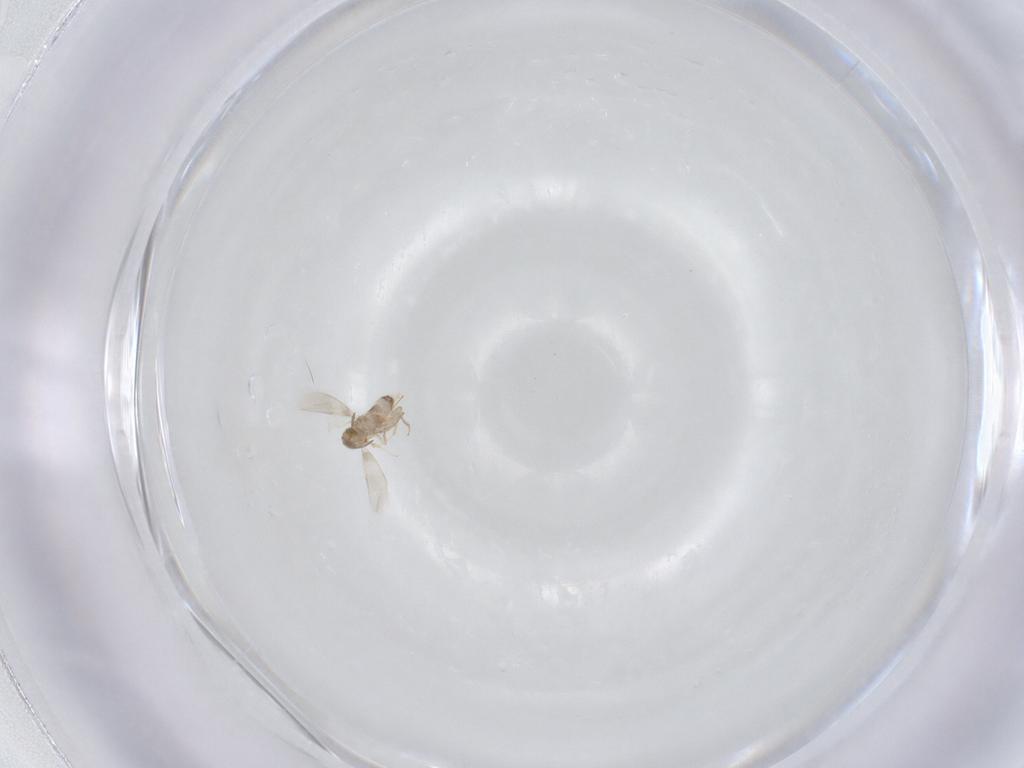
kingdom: Animalia
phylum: Arthropoda
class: Insecta
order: Hymenoptera
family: Aphelinidae
